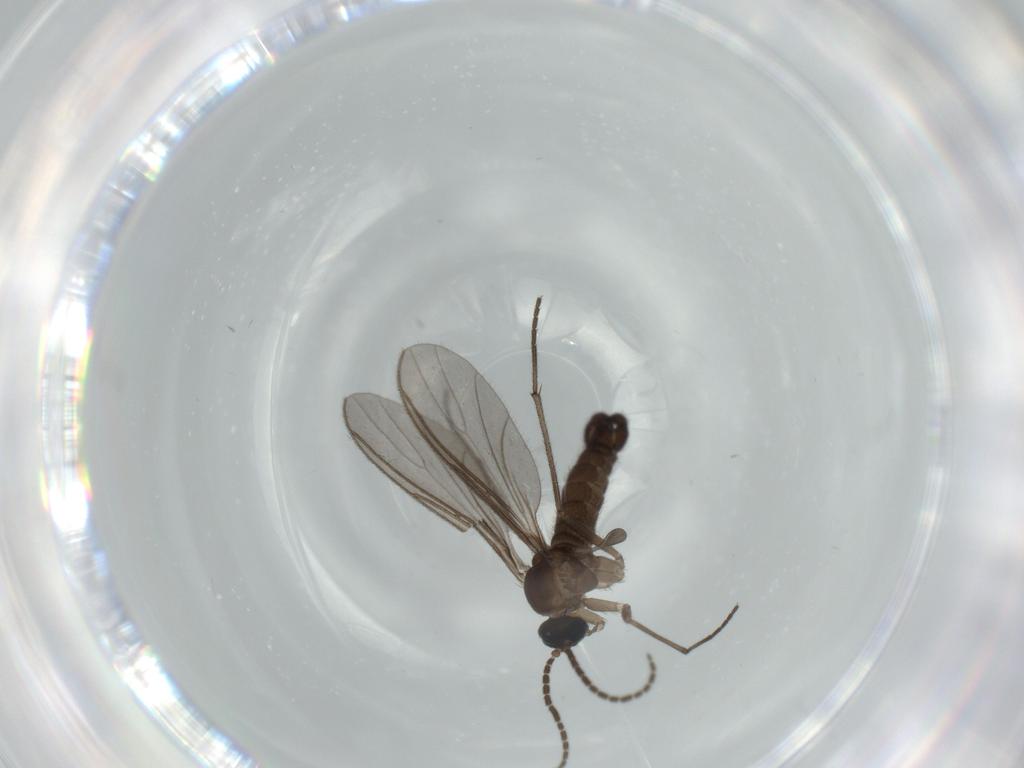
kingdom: Animalia
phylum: Arthropoda
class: Insecta
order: Diptera
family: Sciaridae
